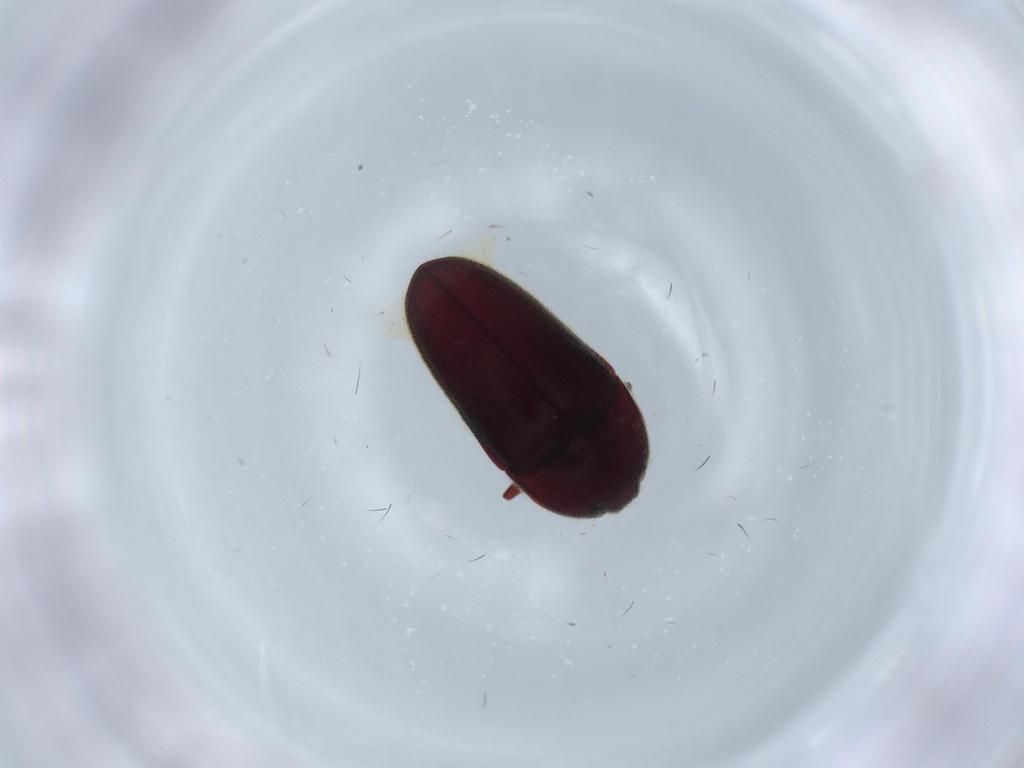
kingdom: Animalia
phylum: Arthropoda
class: Insecta
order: Coleoptera
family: Throscidae
